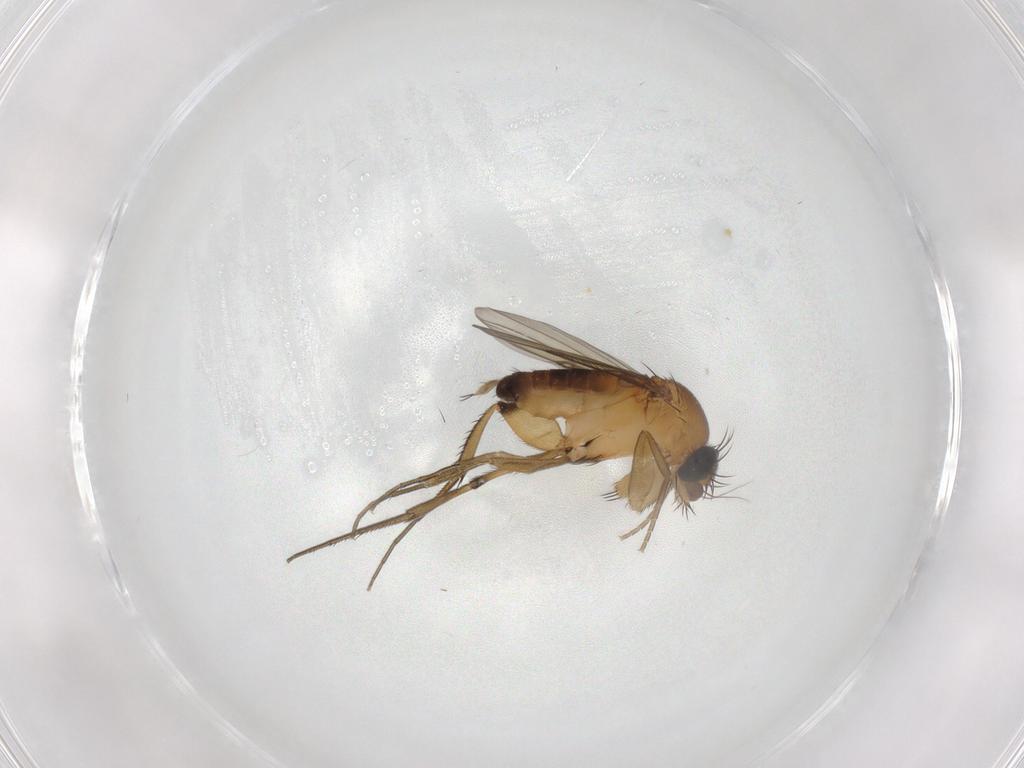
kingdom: Animalia
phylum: Arthropoda
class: Insecta
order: Diptera
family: Phoridae
